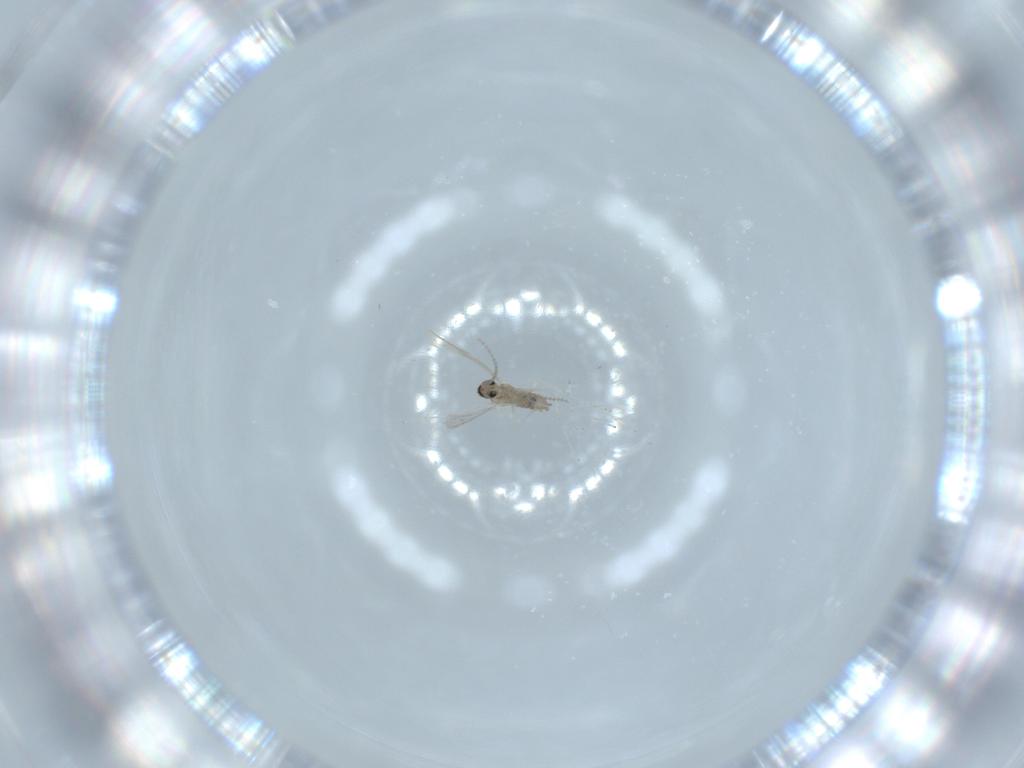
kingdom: Animalia
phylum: Arthropoda
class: Insecta
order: Diptera
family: Cecidomyiidae
